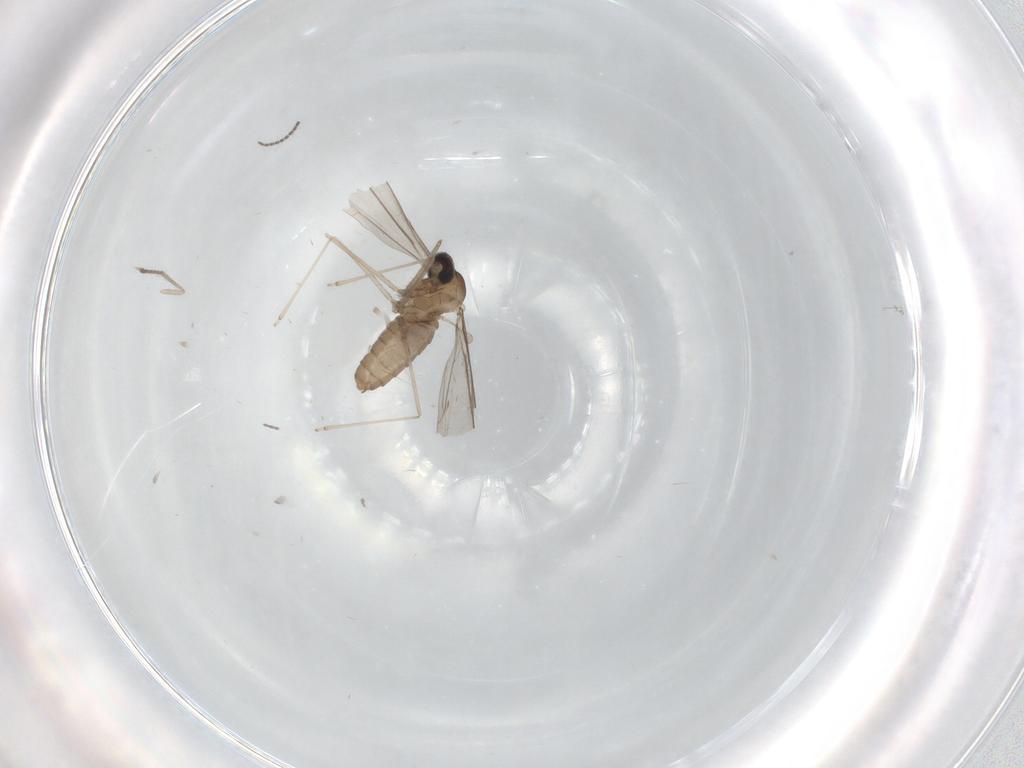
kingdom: Animalia
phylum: Arthropoda
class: Insecta
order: Diptera
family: Cecidomyiidae
